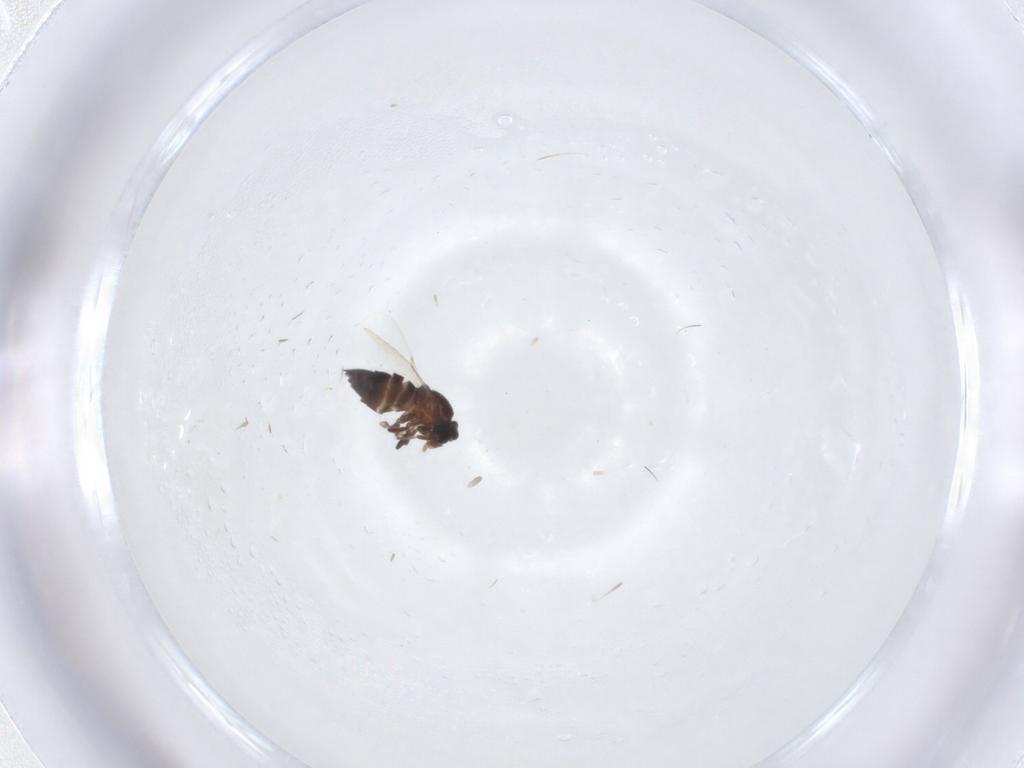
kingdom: Animalia
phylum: Arthropoda
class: Insecta
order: Diptera
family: Scatopsidae
